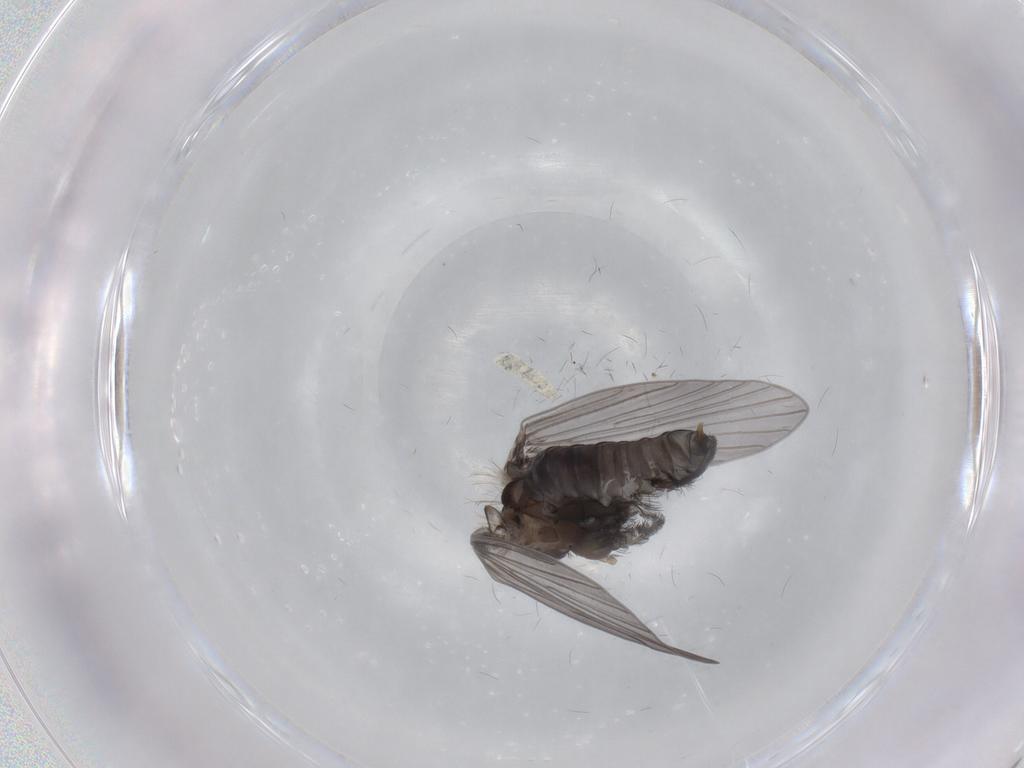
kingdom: Animalia
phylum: Arthropoda
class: Insecta
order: Diptera
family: Psychodidae
